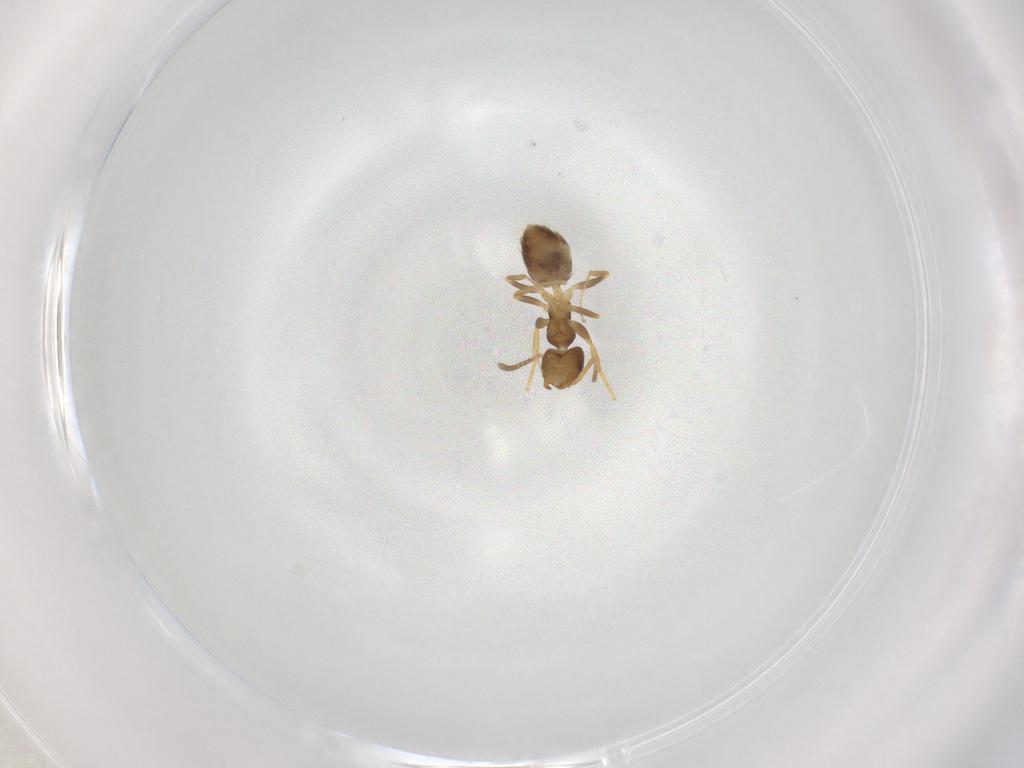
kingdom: Animalia
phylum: Arthropoda
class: Insecta
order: Hymenoptera
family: Formicidae
